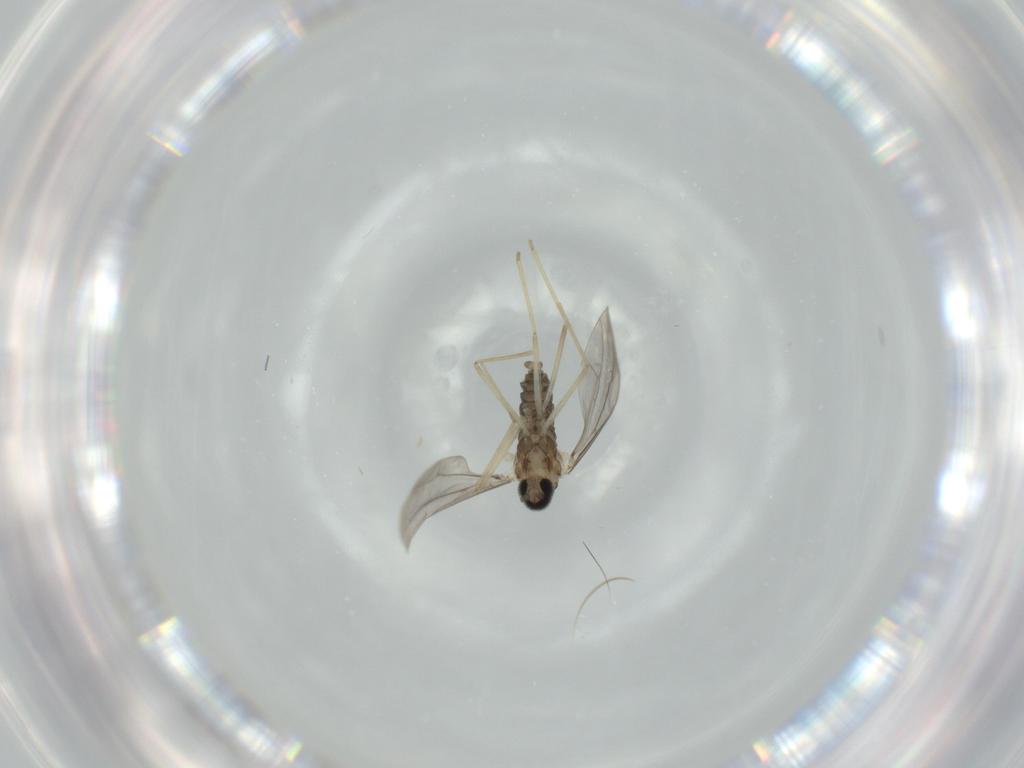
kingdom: Animalia
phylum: Arthropoda
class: Insecta
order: Diptera
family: Cecidomyiidae
